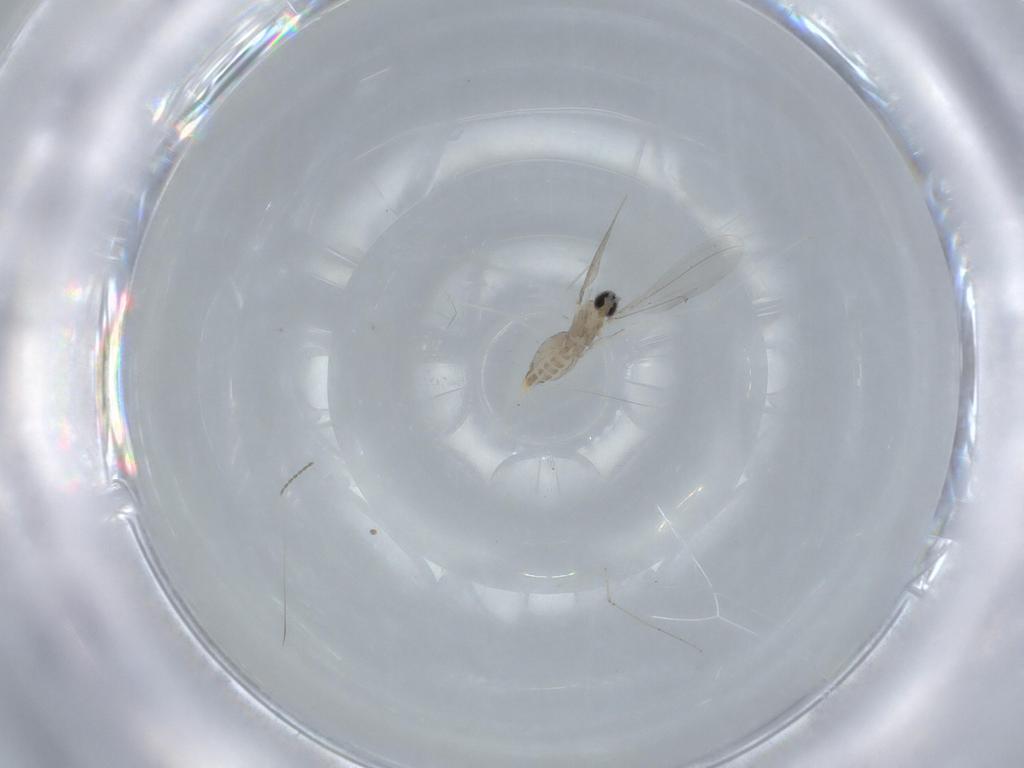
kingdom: Animalia
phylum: Arthropoda
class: Insecta
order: Diptera
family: Cecidomyiidae
